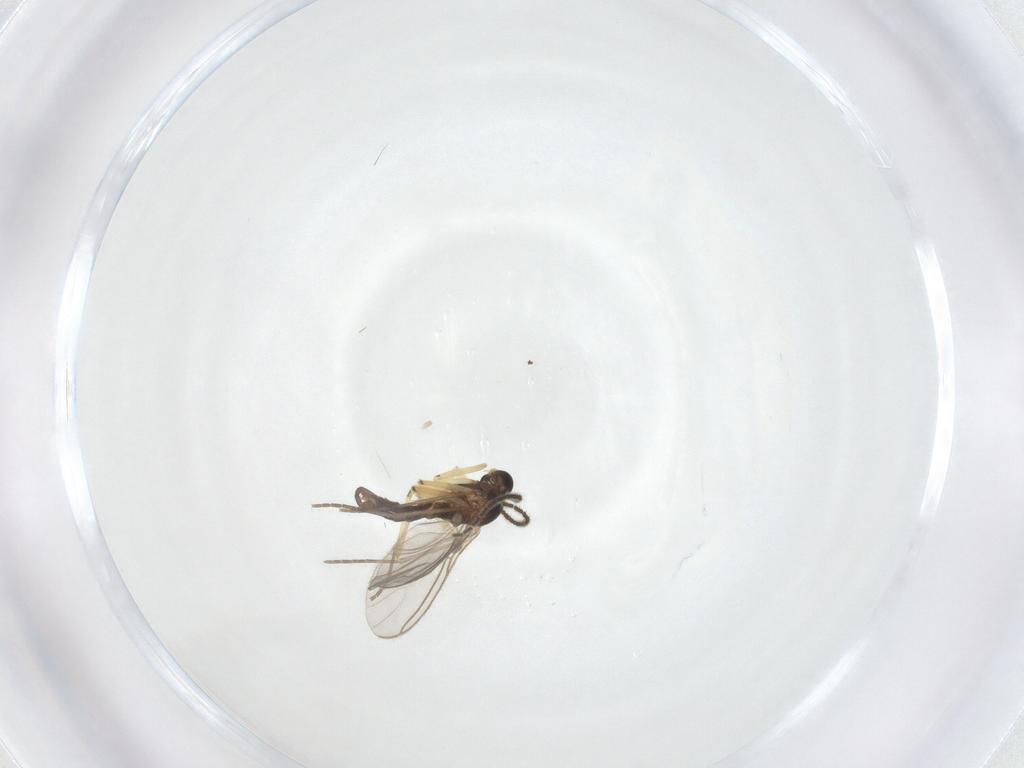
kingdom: Animalia
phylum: Arthropoda
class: Insecta
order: Diptera
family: Sciaridae
